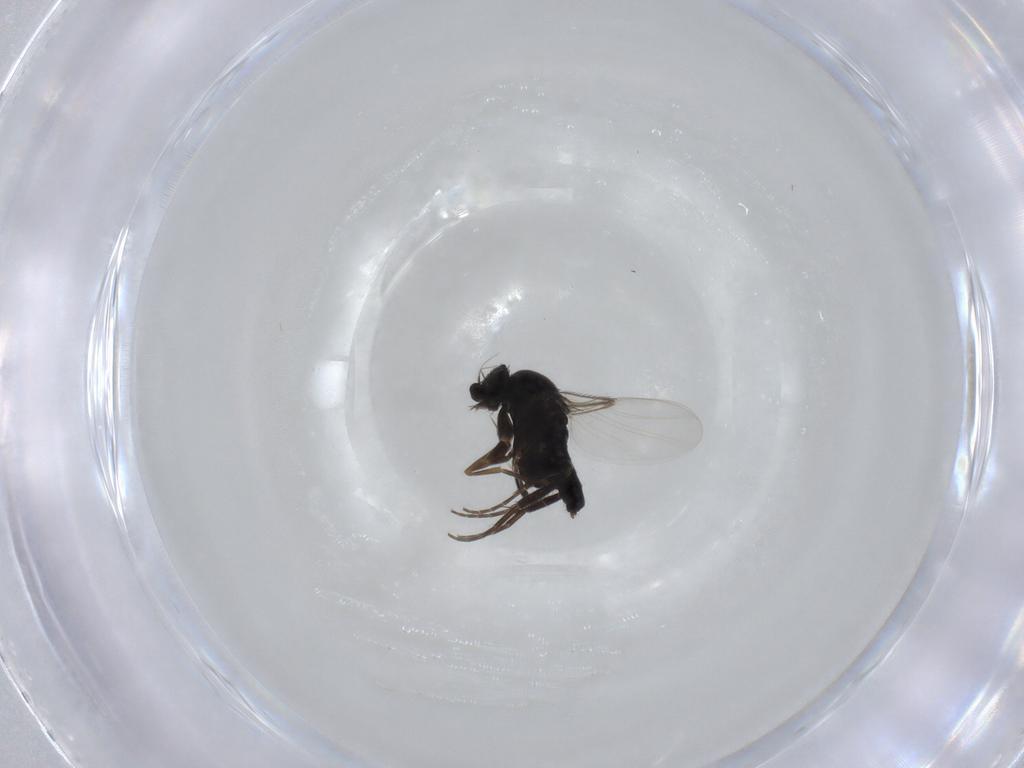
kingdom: Animalia
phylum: Arthropoda
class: Insecta
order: Diptera
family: Phoridae
